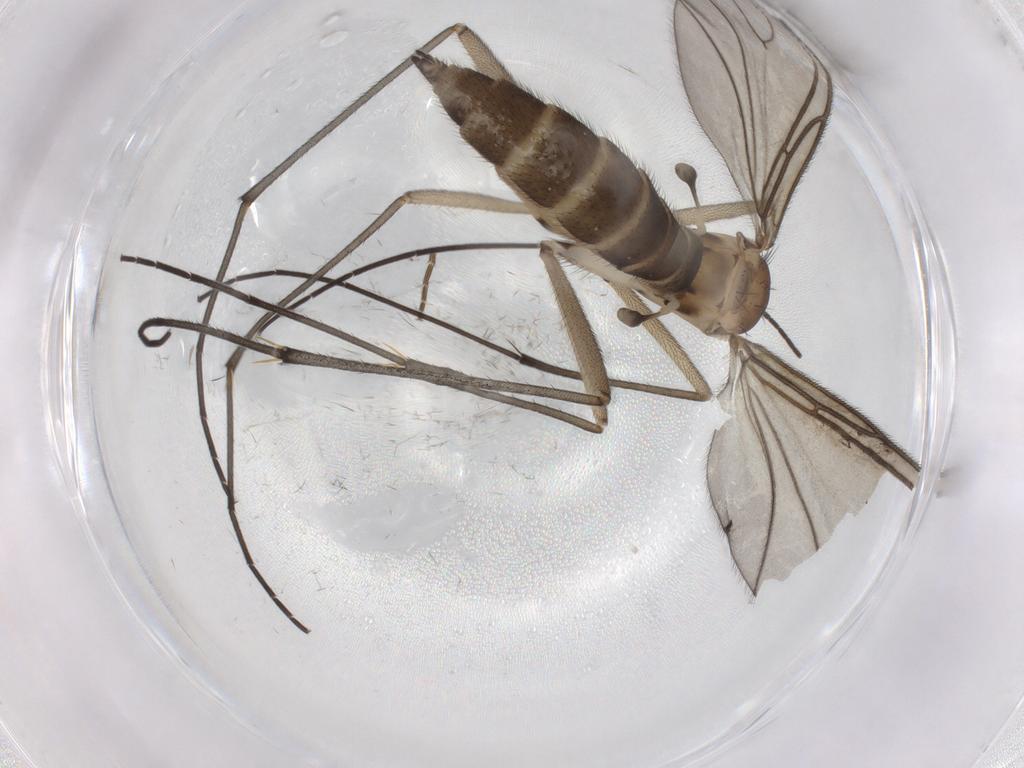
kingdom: Animalia
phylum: Arthropoda
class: Insecta
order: Diptera
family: Sciaridae
